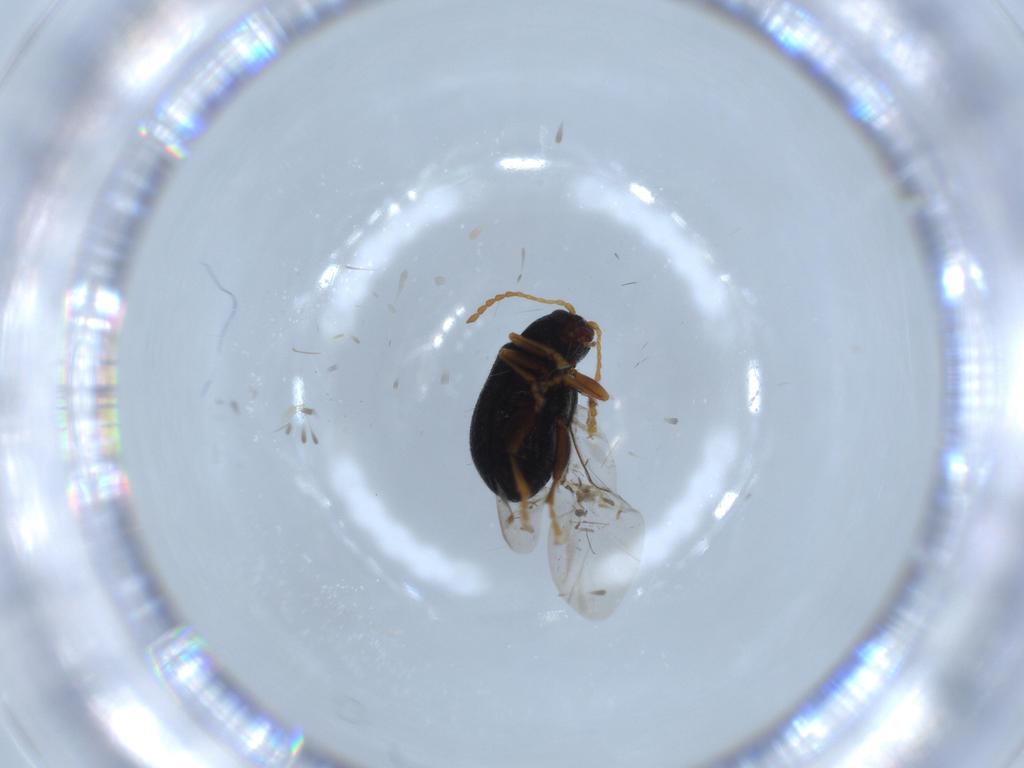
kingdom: Animalia
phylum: Arthropoda
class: Insecta
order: Coleoptera
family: Chrysomelidae
